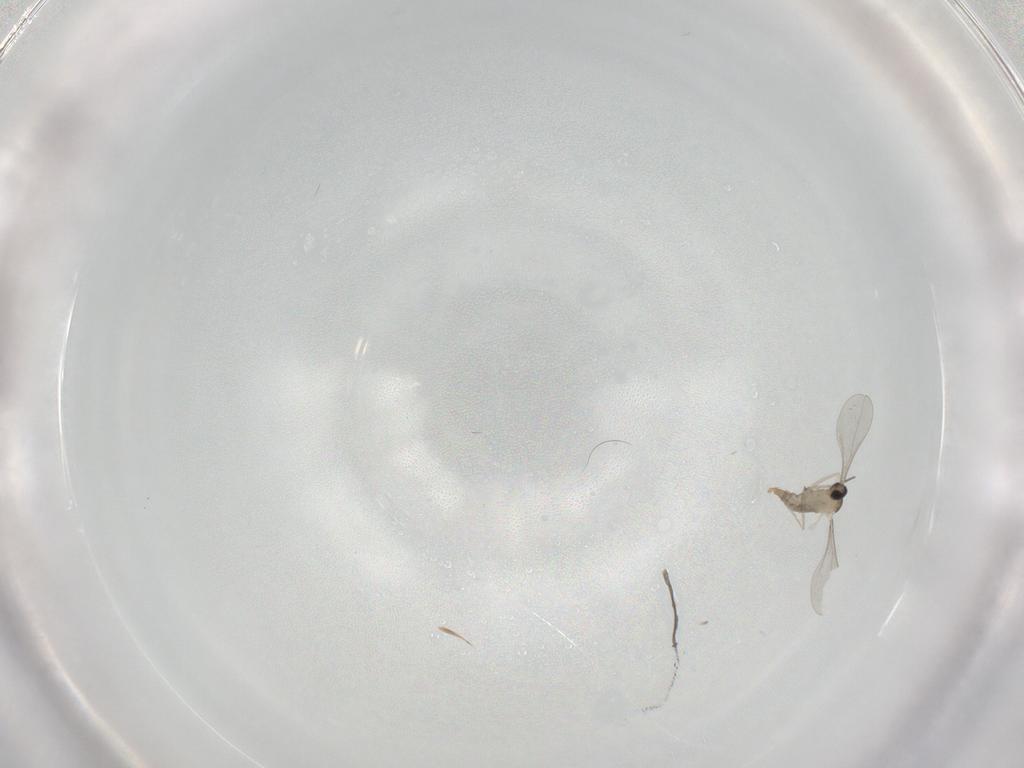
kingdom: Animalia
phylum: Arthropoda
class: Insecta
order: Diptera
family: Cecidomyiidae
